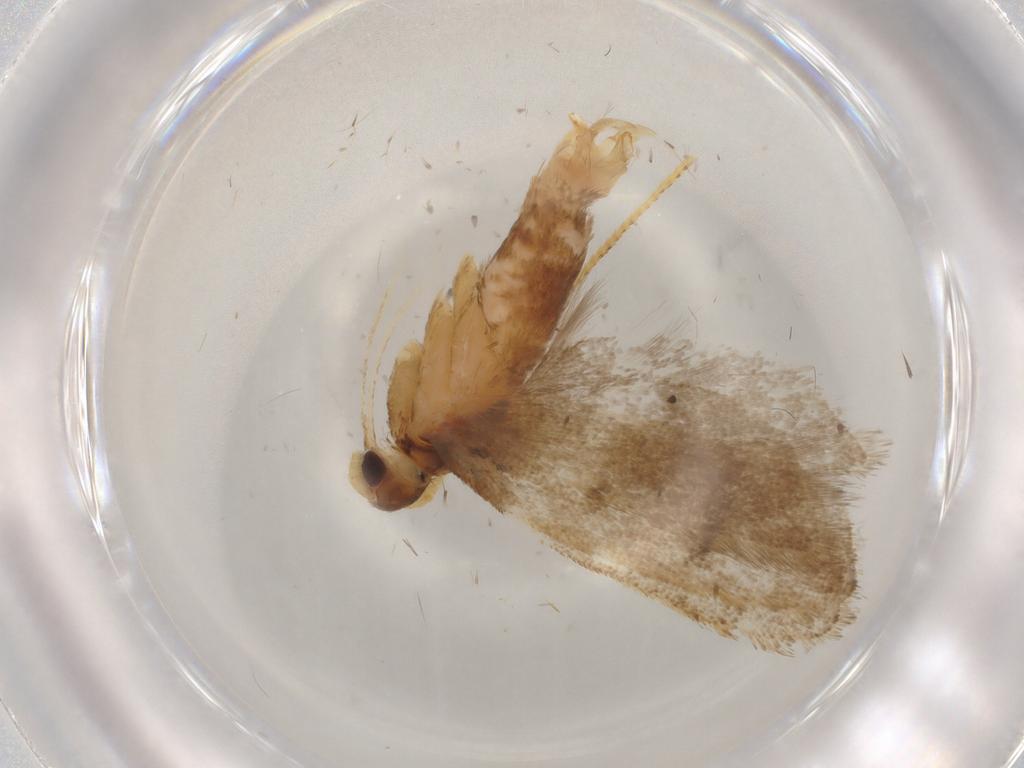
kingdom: Animalia
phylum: Arthropoda
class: Insecta
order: Lepidoptera
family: Lecithoceridae
